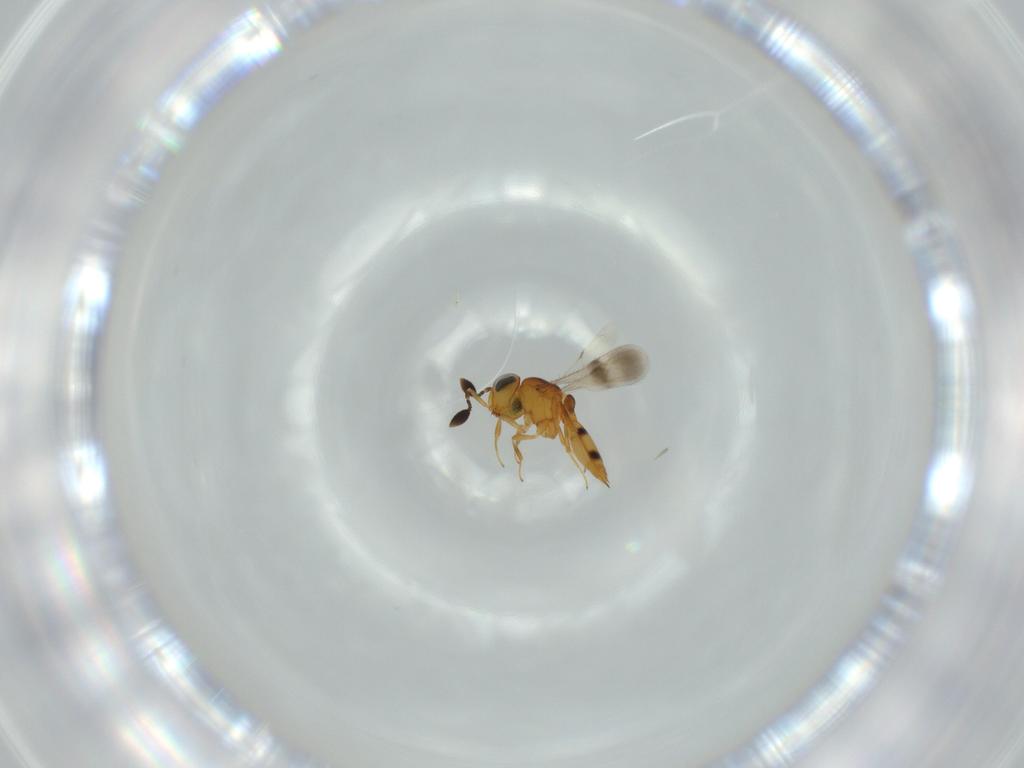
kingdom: Animalia
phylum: Arthropoda
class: Insecta
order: Hymenoptera
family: Scelionidae
